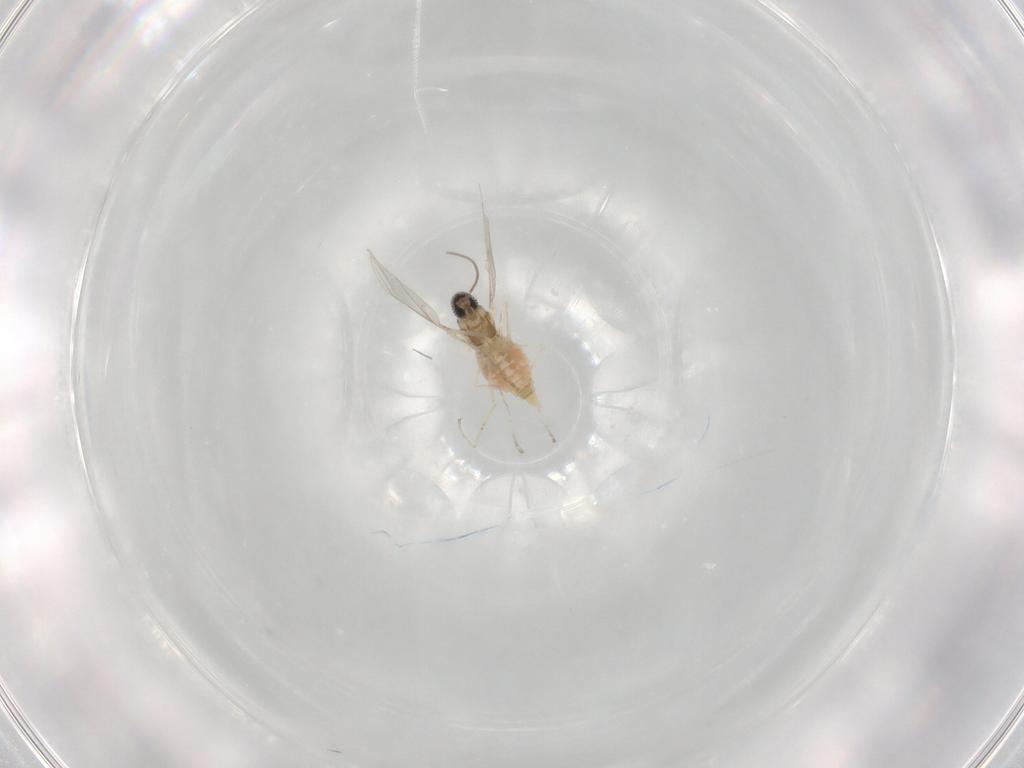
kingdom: Animalia
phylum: Arthropoda
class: Insecta
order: Diptera
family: Cecidomyiidae
